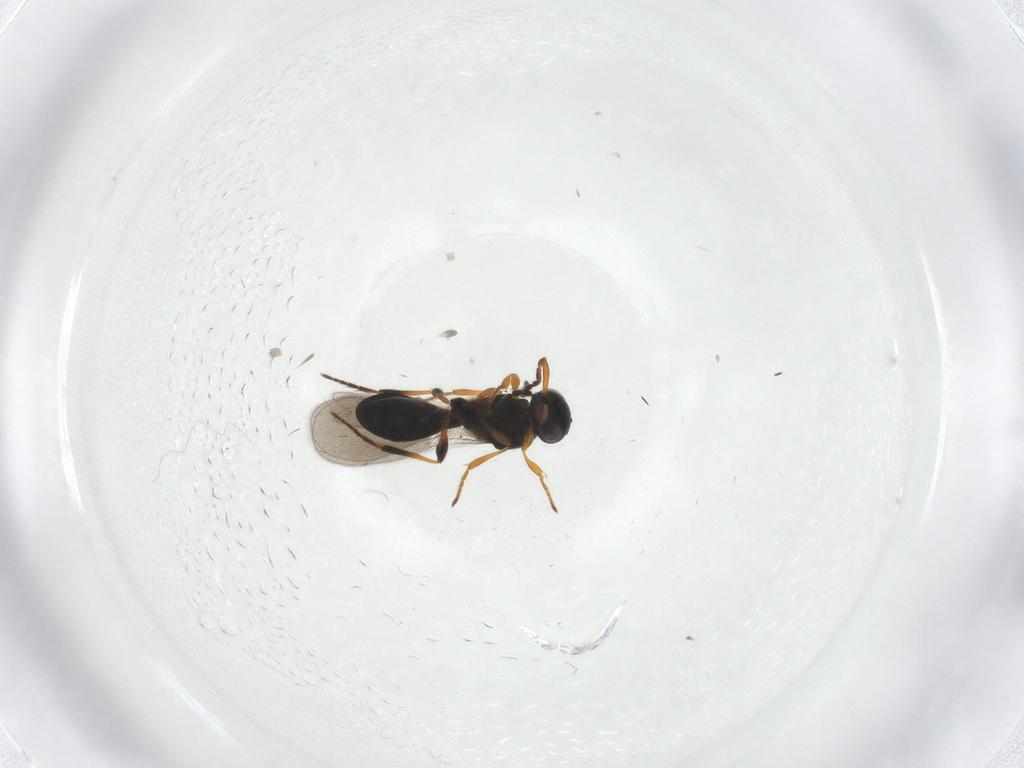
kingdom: Animalia
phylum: Arthropoda
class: Insecta
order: Hymenoptera
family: Platygastridae
